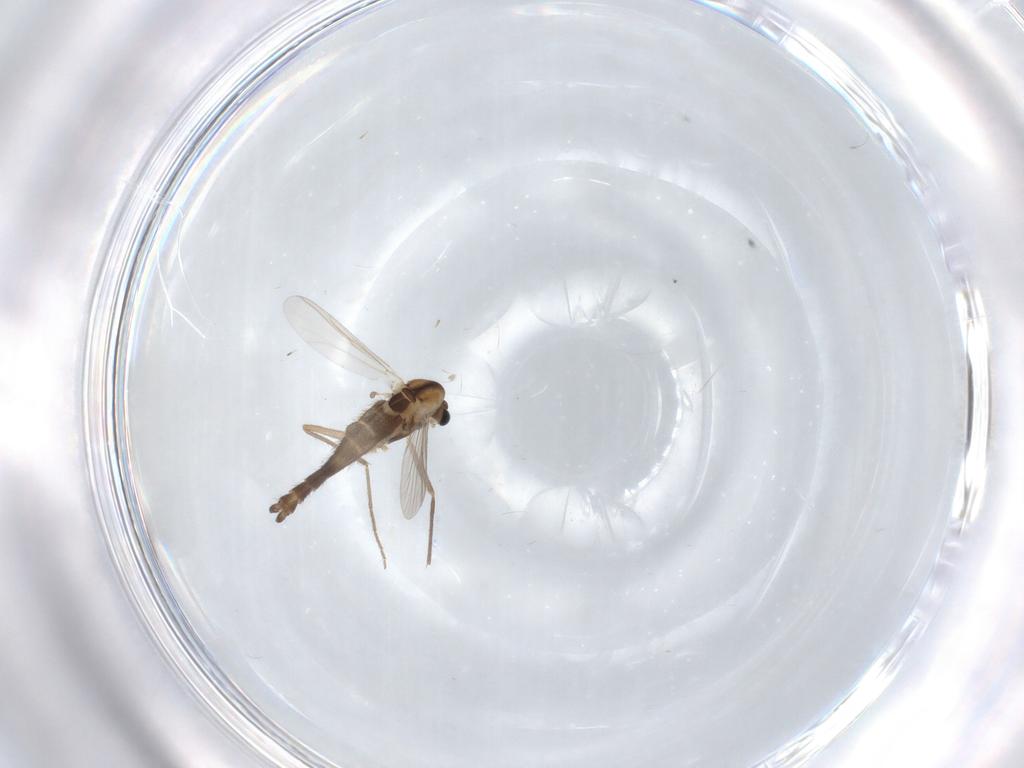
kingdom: Animalia
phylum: Arthropoda
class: Insecta
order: Diptera
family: Chironomidae
